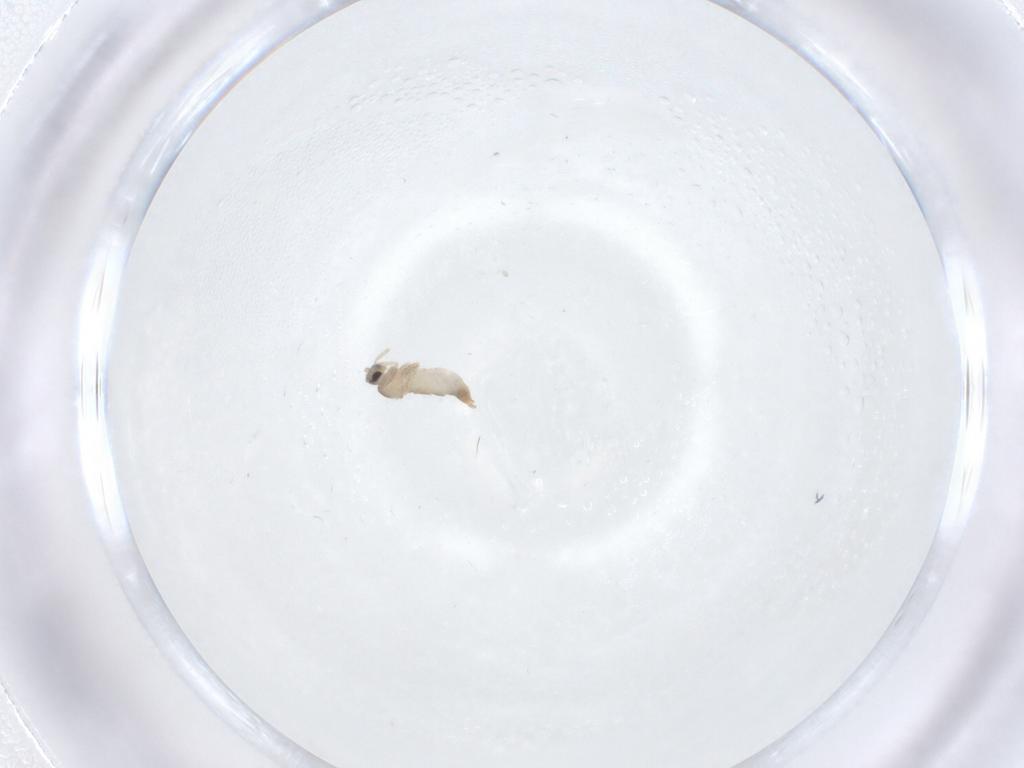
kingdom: Animalia
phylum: Arthropoda
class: Insecta
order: Diptera
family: Cecidomyiidae
